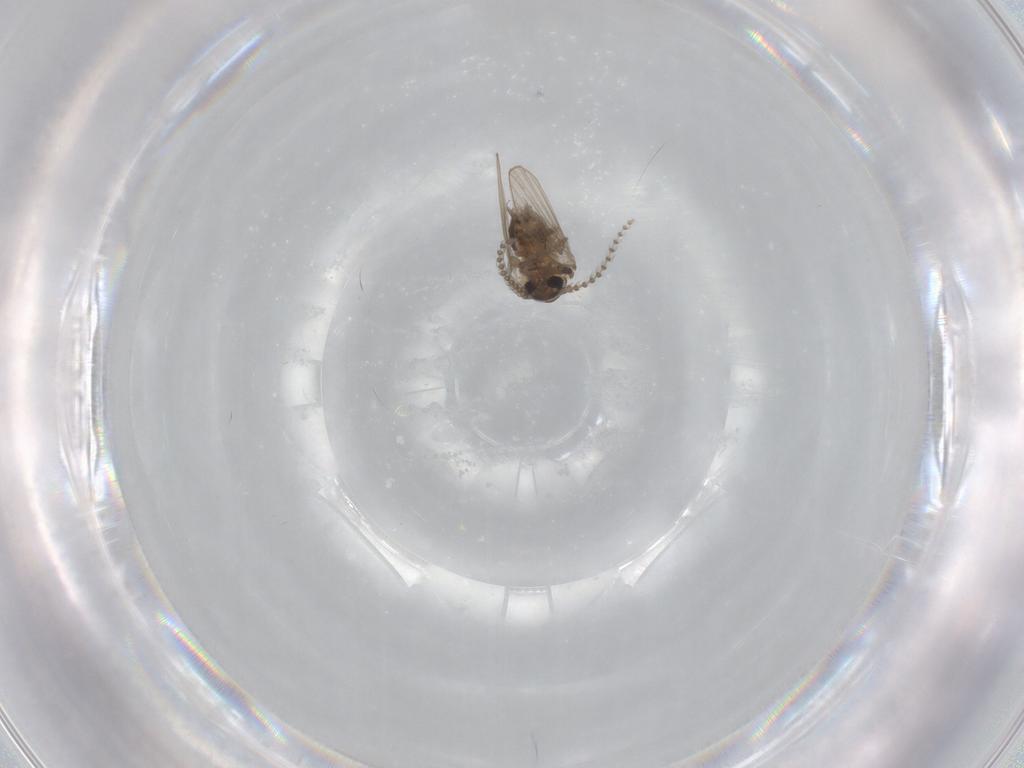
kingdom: Animalia
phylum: Arthropoda
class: Insecta
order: Diptera
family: Psychodidae
